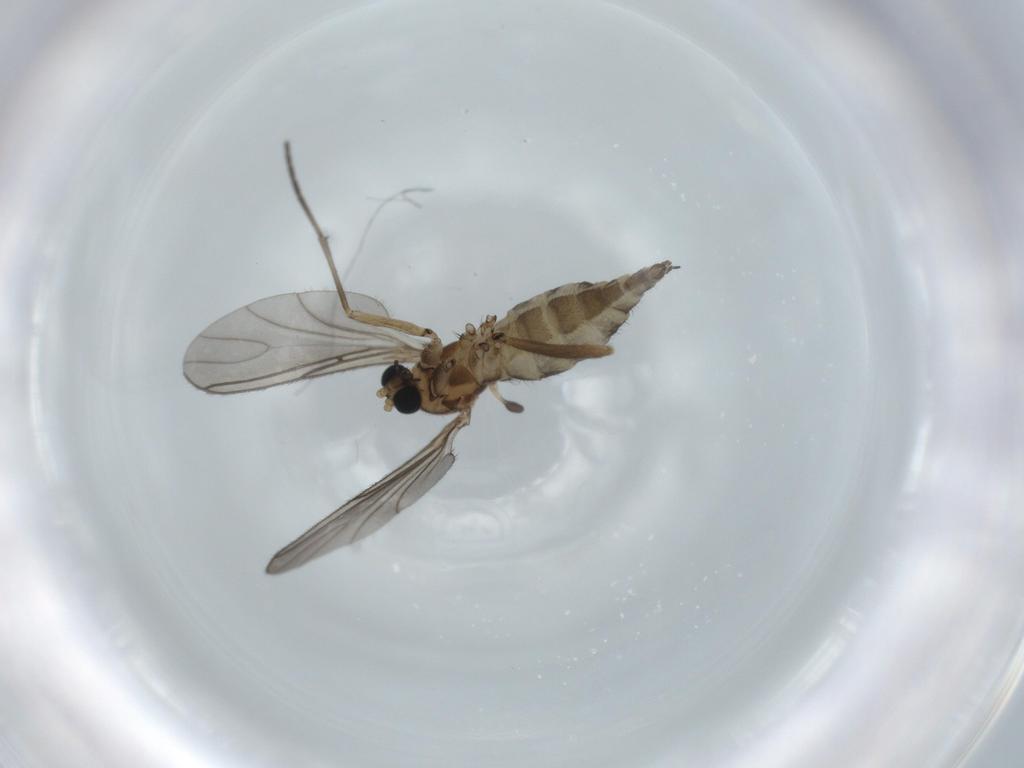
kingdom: Animalia
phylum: Arthropoda
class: Insecta
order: Diptera
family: Sciaridae
